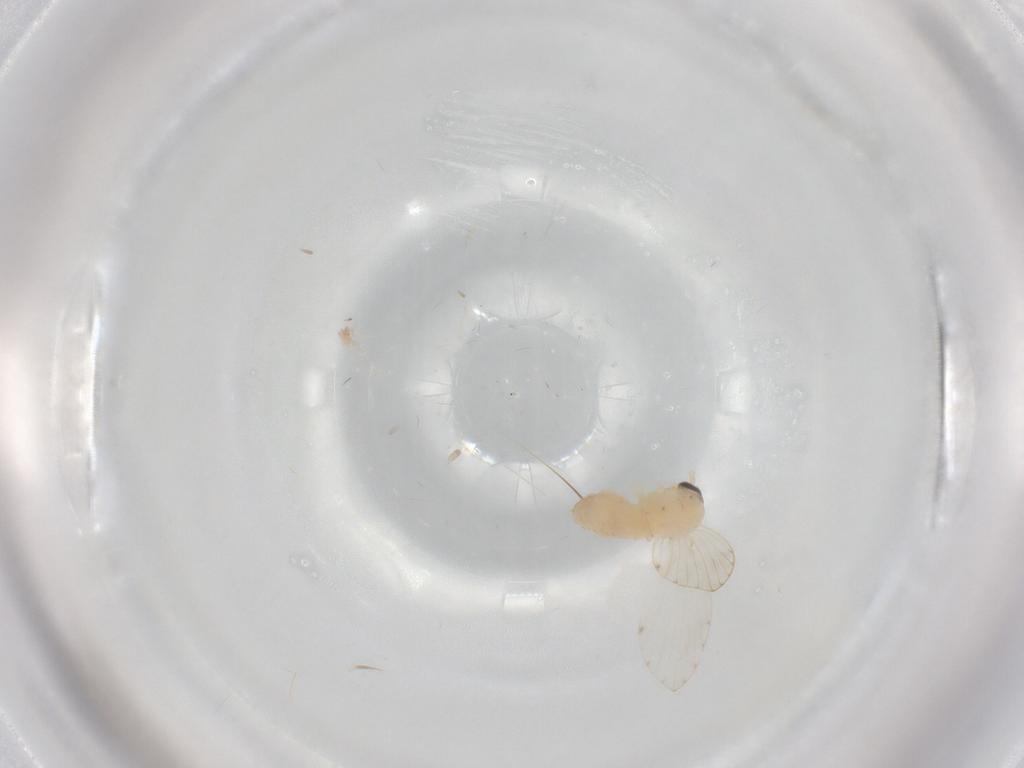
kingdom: Animalia
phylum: Arthropoda
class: Insecta
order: Diptera
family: Psychodidae
